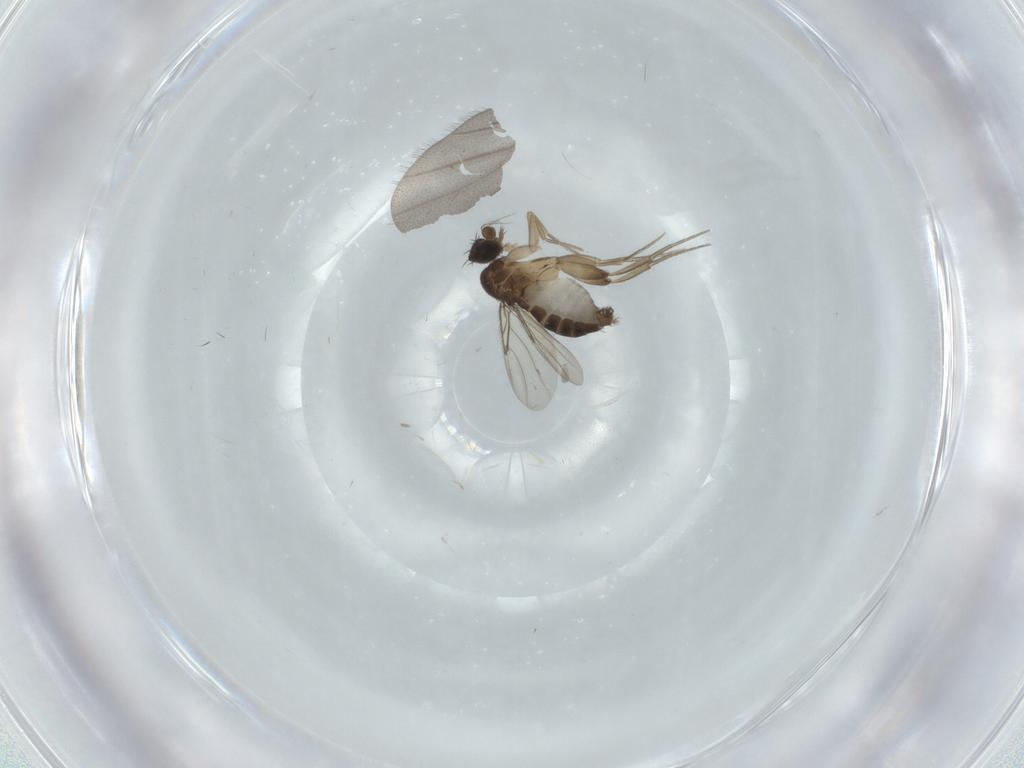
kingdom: Animalia
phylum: Arthropoda
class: Insecta
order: Diptera
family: Phoridae
